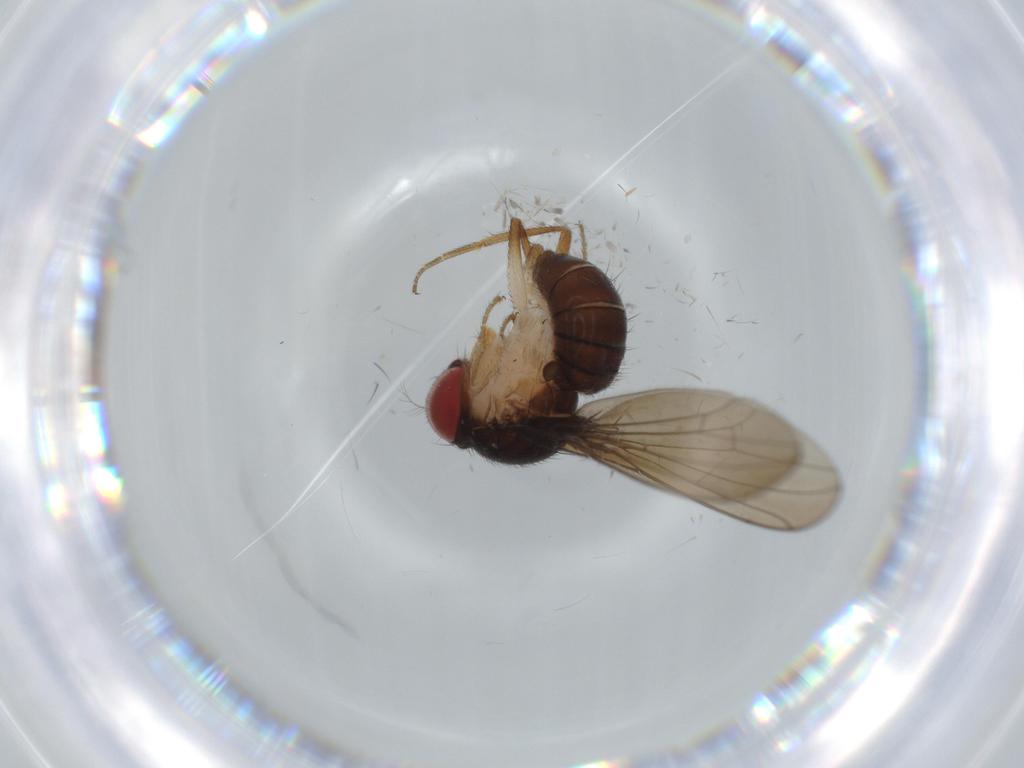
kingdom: Animalia
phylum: Arthropoda
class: Insecta
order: Diptera
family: Drosophilidae
